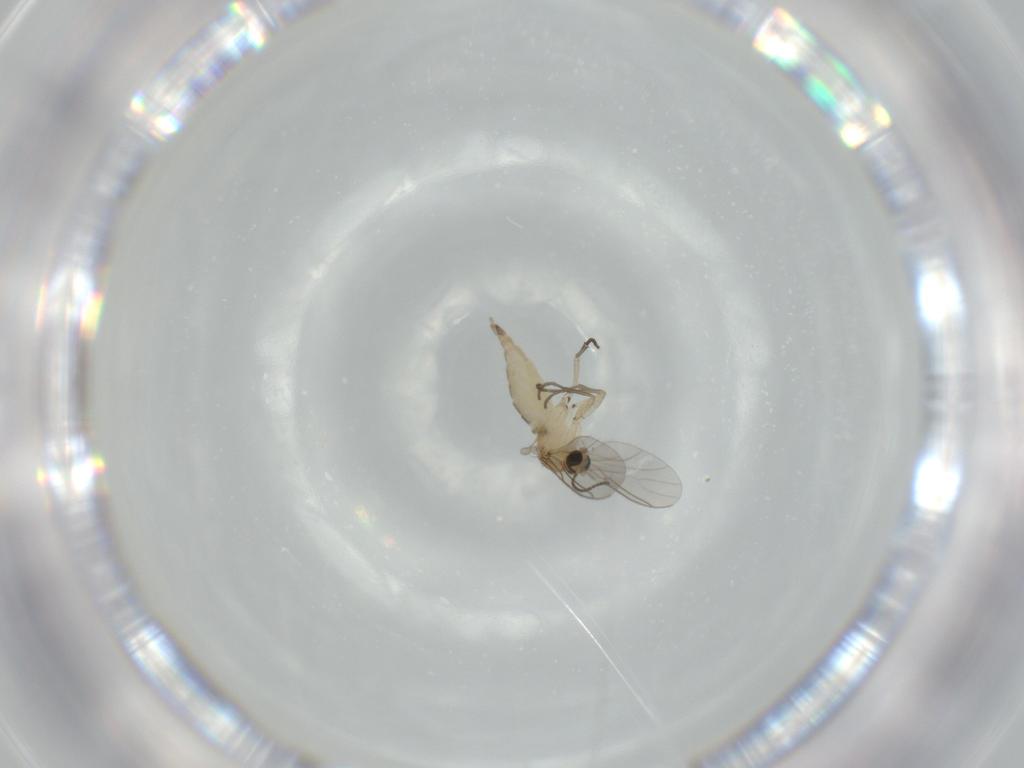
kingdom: Animalia
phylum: Arthropoda
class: Insecta
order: Diptera
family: Sciaridae
